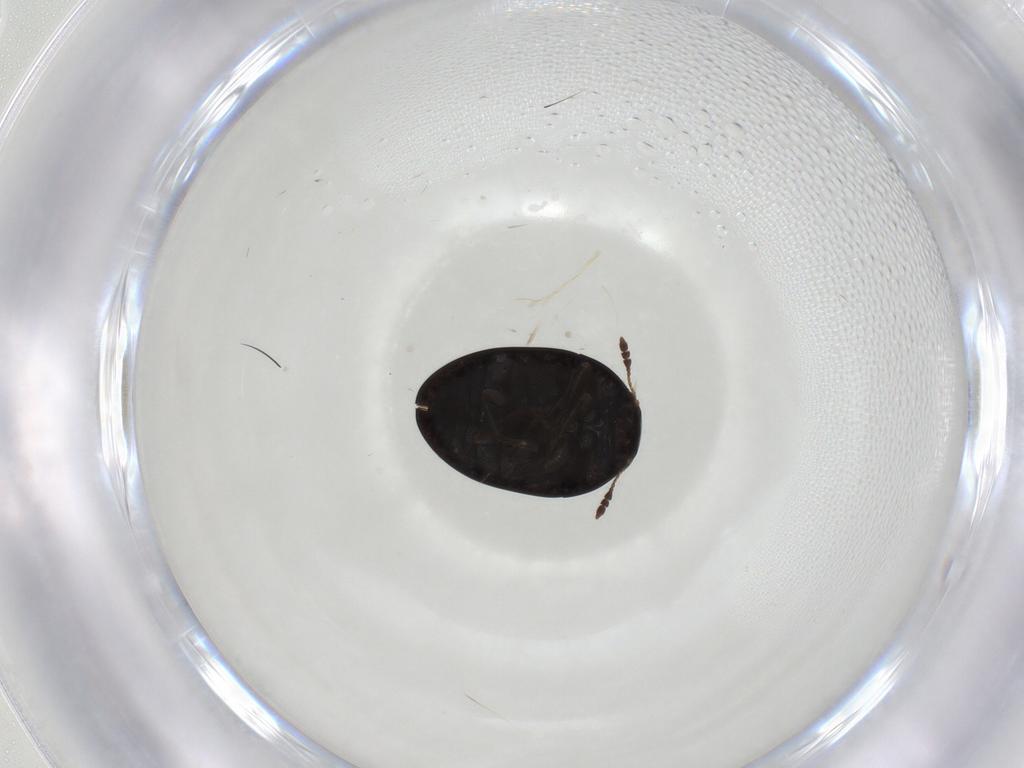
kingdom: Animalia
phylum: Arthropoda
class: Insecta
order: Coleoptera
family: Phalacridae
